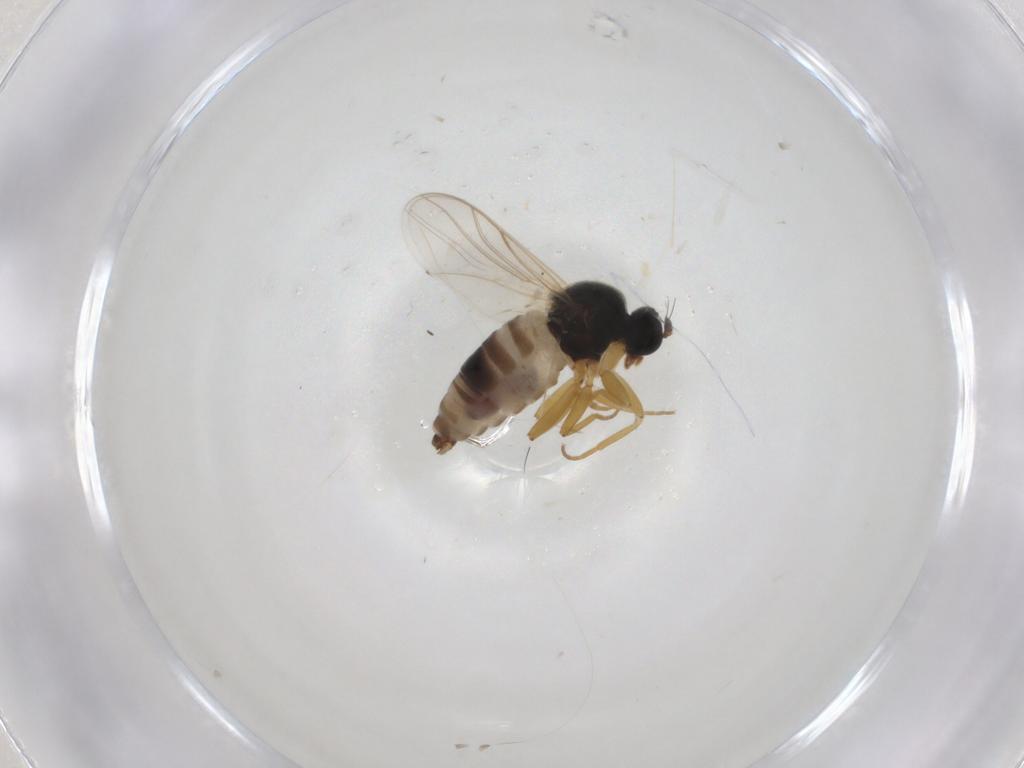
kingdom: Animalia
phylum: Arthropoda
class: Insecta
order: Diptera
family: Hybotidae
